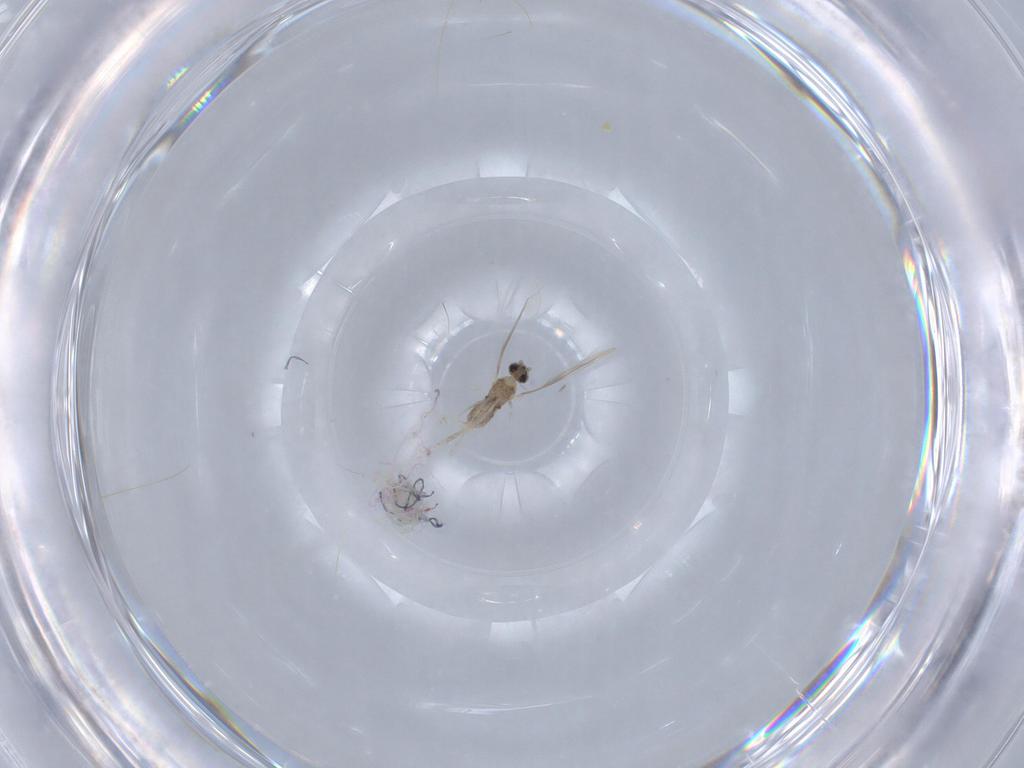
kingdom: Animalia
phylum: Arthropoda
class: Insecta
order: Diptera
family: Cecidomyiidae
